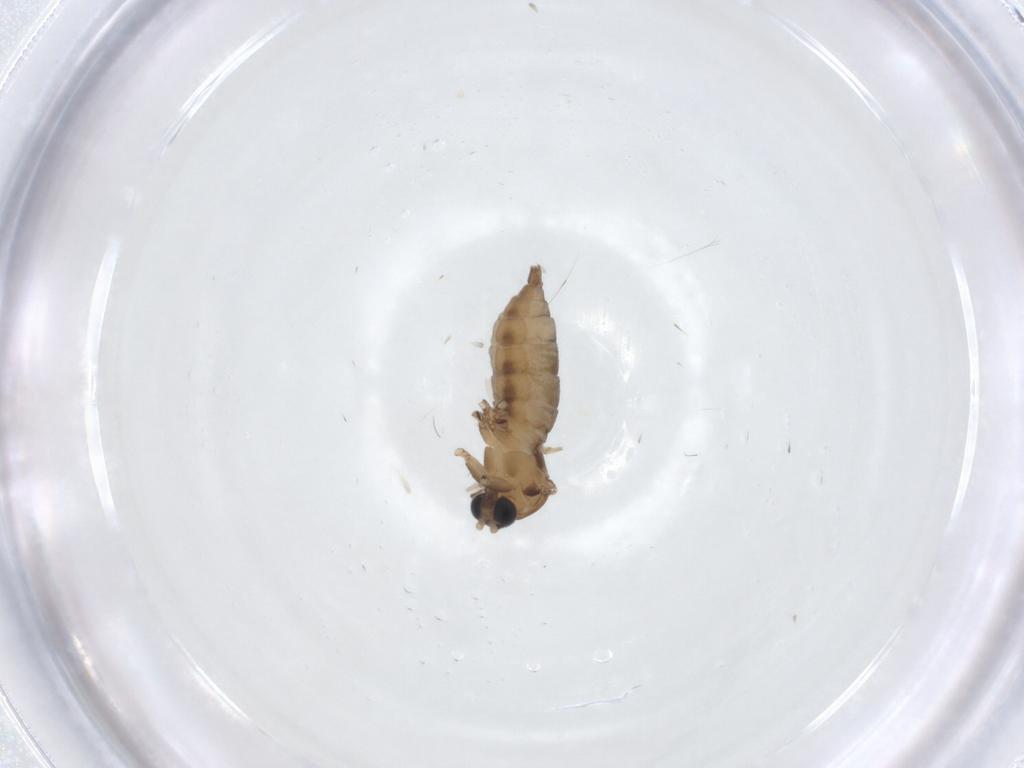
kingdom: Animalia
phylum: Arthropoda
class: Insecta
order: Diptera
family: Sciaridae
